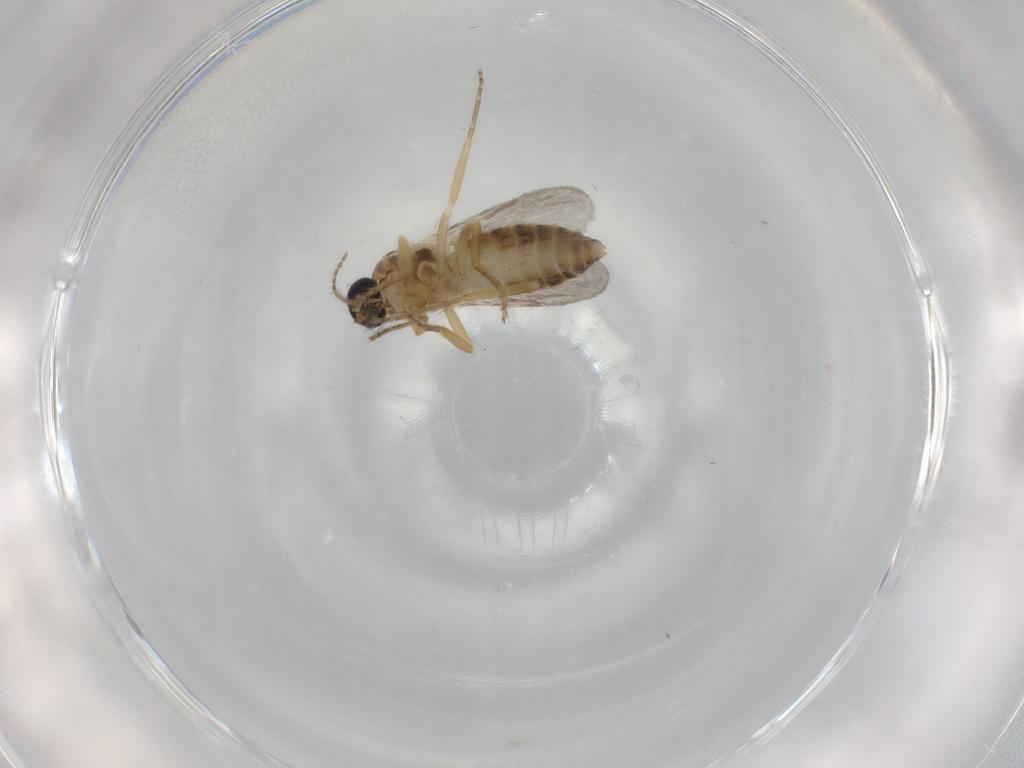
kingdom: Animalia
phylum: Arthropoda
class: Insecta
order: Diptera
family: Ceratopogonidae
